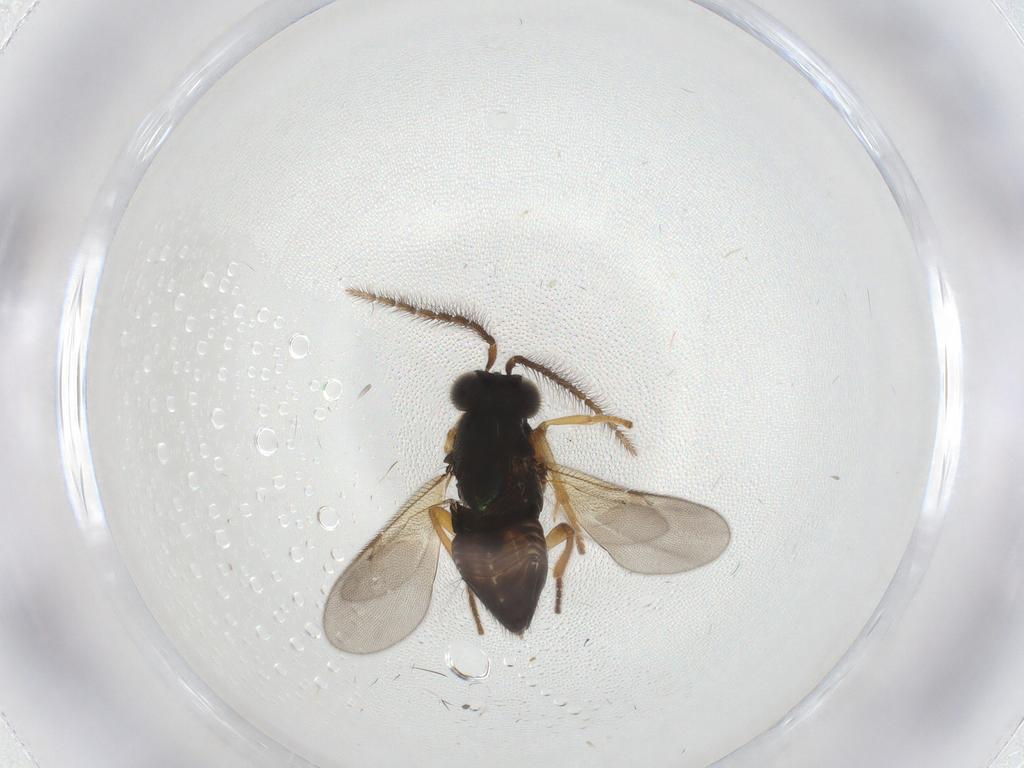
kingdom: Animalia
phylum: Arthropoda
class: Insecta
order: Hymenoptera
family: Encyrtidae
